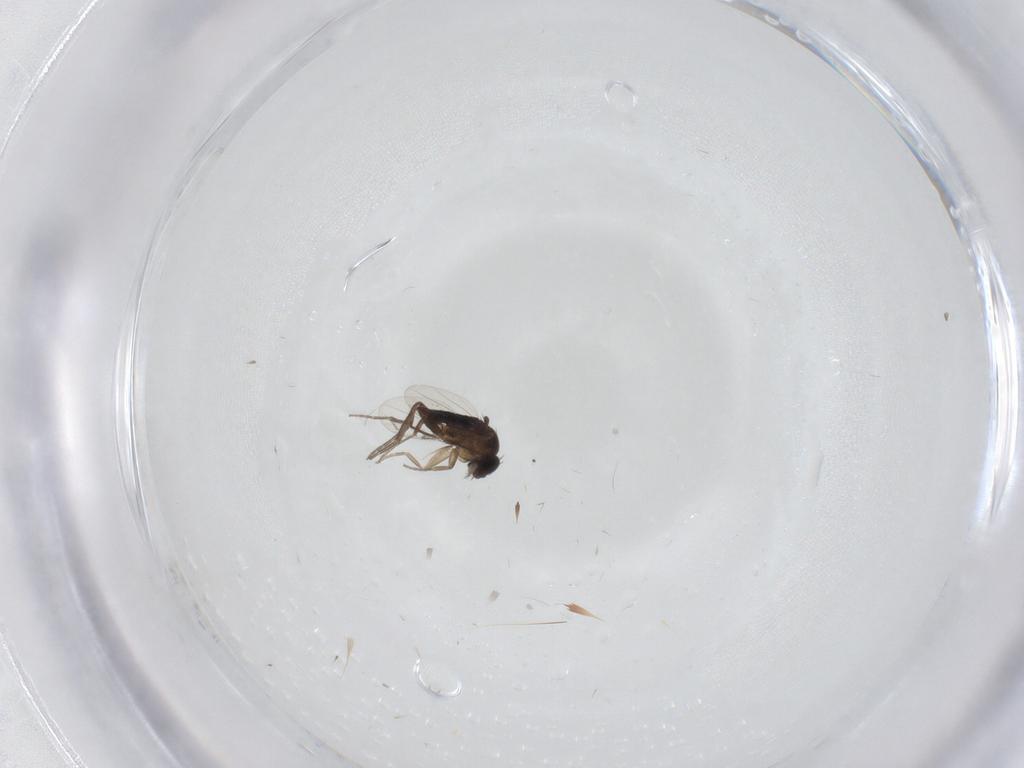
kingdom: Animalia
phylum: Arthropoda
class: Insecta
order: Diptera
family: Phoridae
